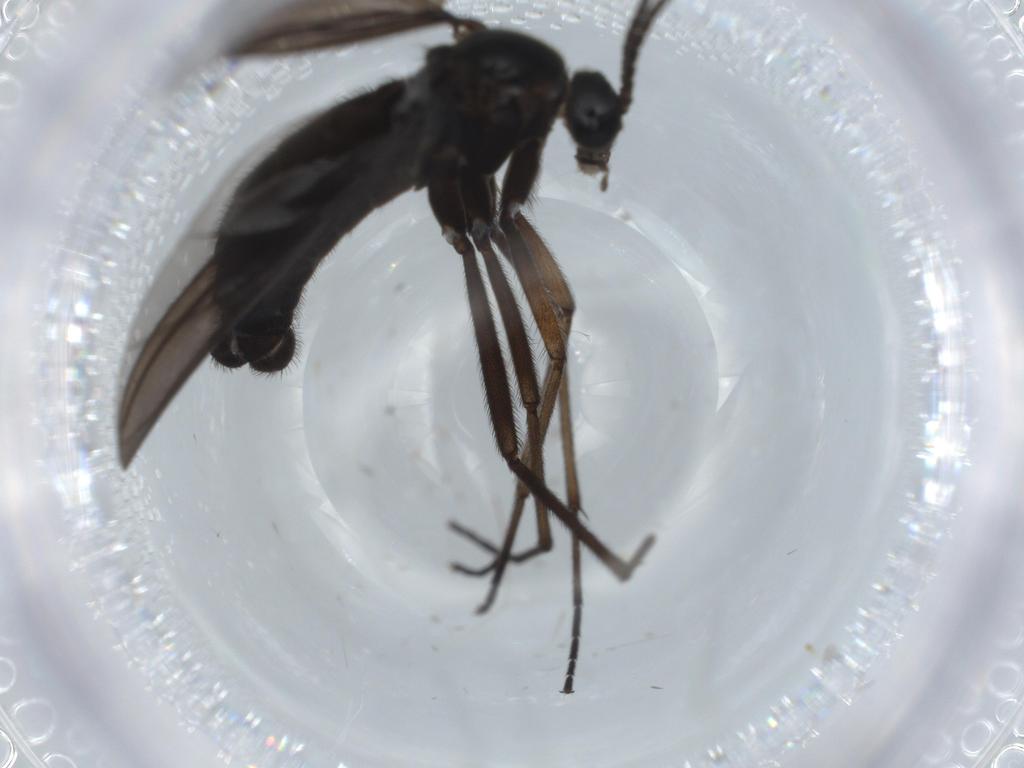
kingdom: Animalia
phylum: Arthropoda
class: Insecta
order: Diptera
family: Sciaridae
